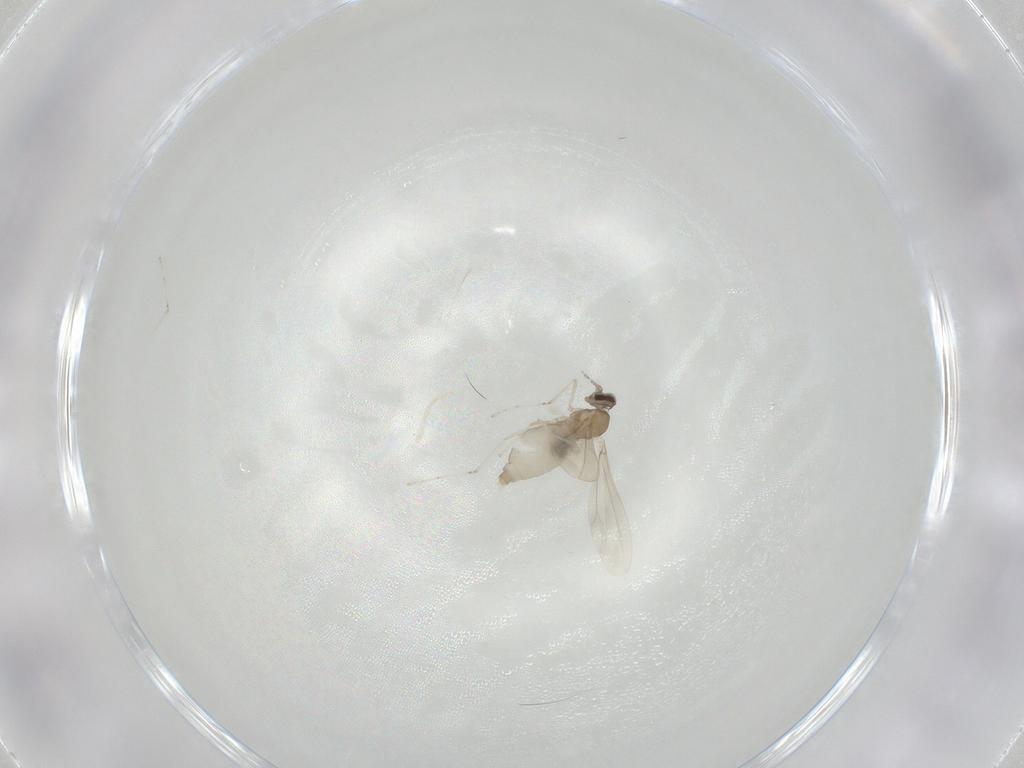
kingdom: Animalia
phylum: Arthropoda
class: Insecta
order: Diptera
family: Cecidomyiidae
